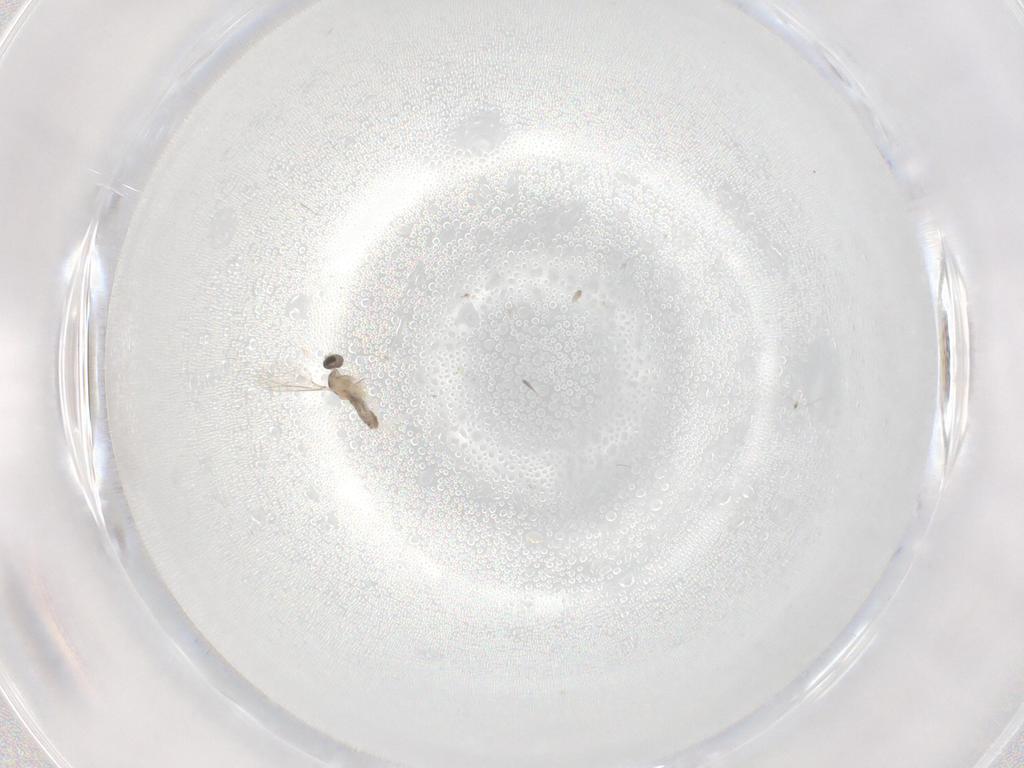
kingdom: Animalia
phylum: Arthropoda
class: Insecta
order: Diptera
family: Cecidomyiidae
